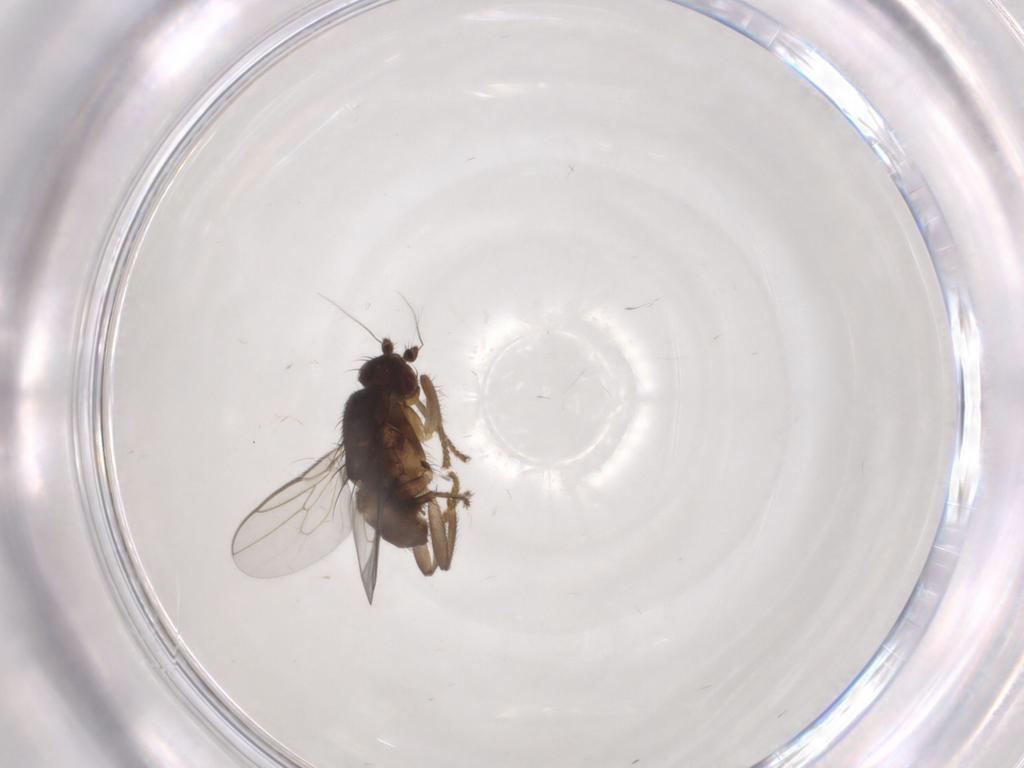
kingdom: Animalia
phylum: Arthropoda
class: Insecta
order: Diptera
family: Sphaeroceridae
